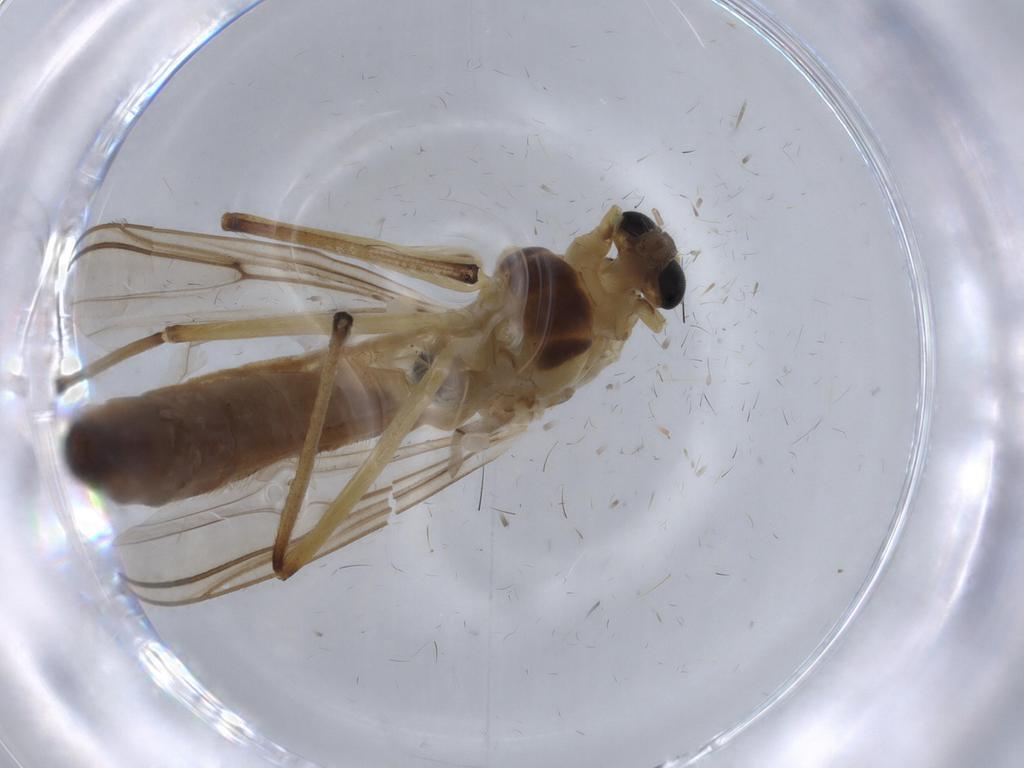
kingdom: Animalia
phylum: Arthropoda
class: Insecta
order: Diptera
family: Chironomidae
